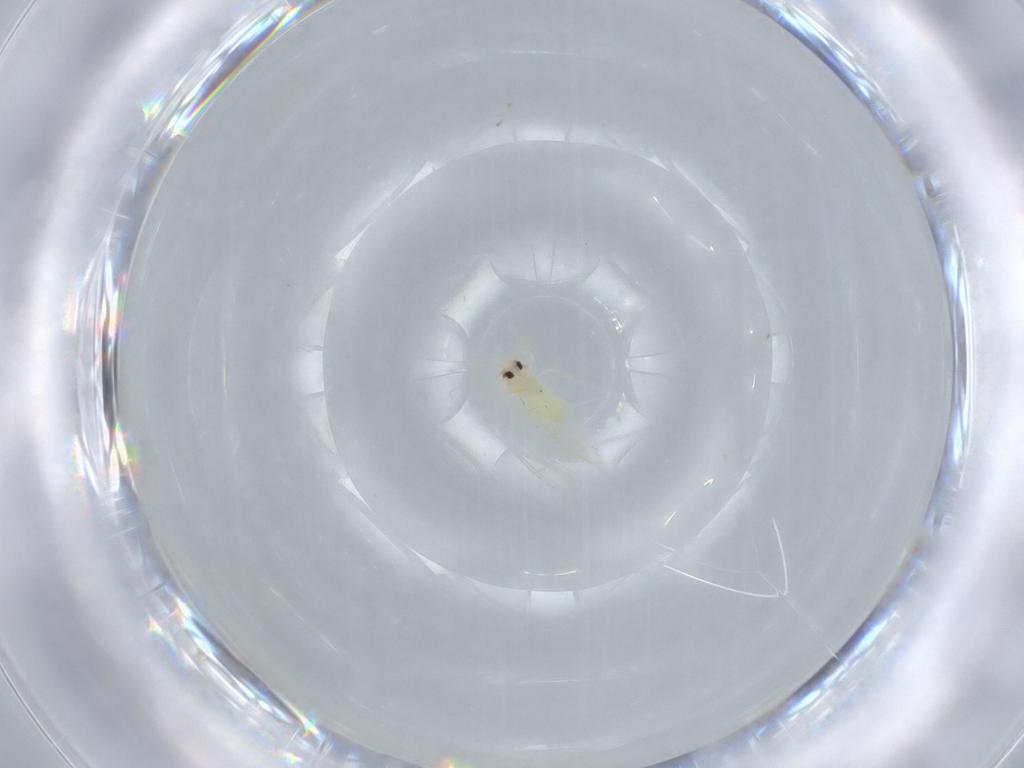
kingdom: Animalia
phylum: Arthropoda
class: Insecta
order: Hemiptera
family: Aleyrodidae
